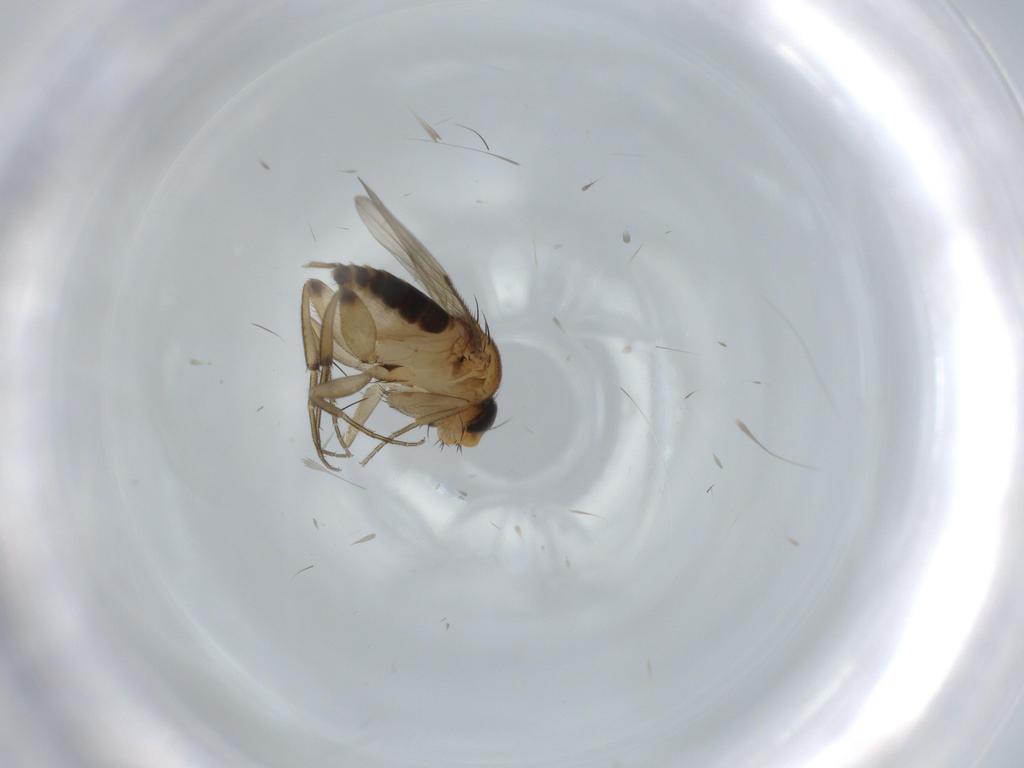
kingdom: Animalia
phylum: Arthropoda
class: Insecta
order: Diptera
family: Cecidomyiidae
